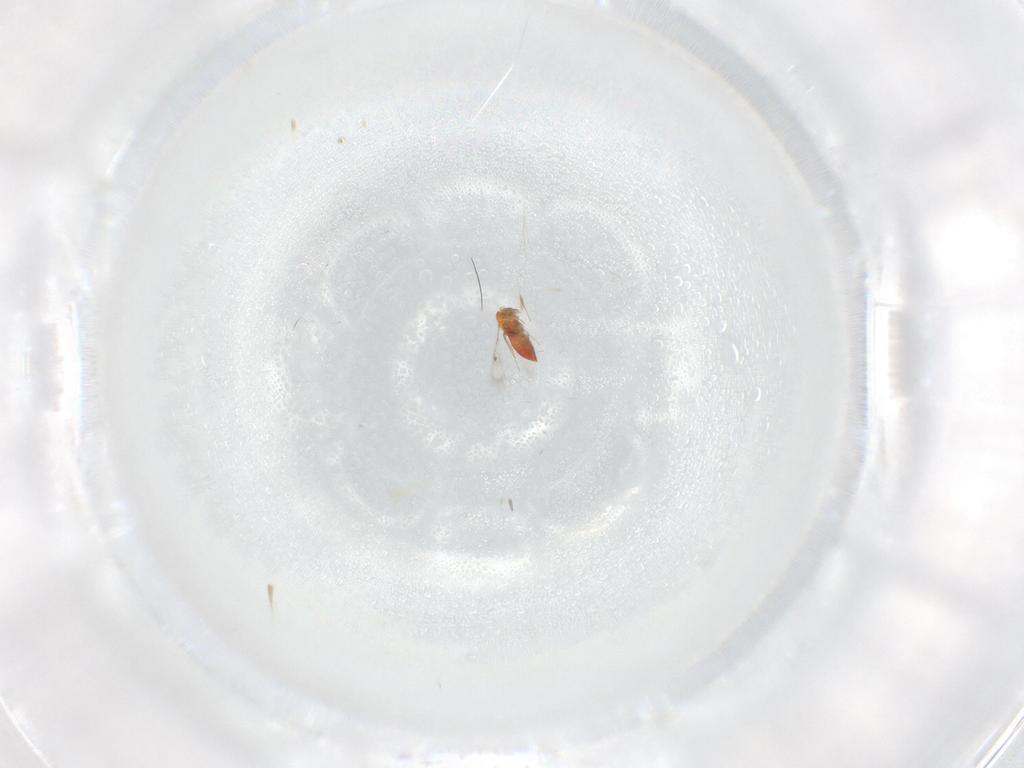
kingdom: Animalia
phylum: Arthropoda
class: Insecta
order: Hymenoptera
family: Trichogrammatidae
